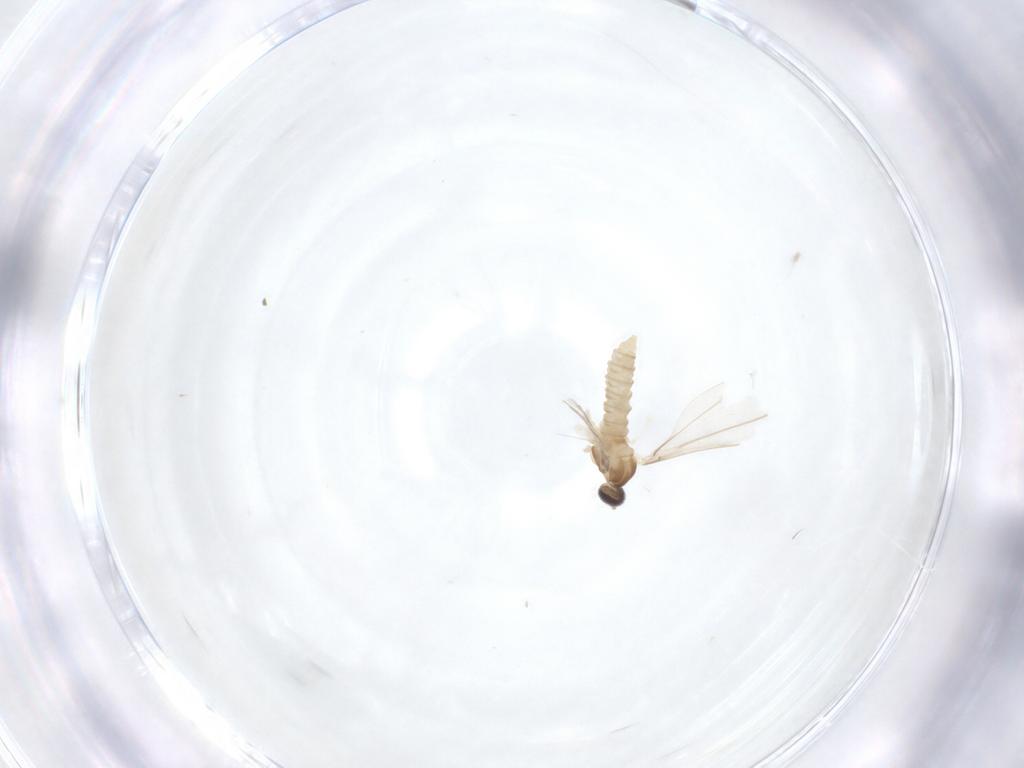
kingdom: Animalia
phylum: Arthropoda
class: Insecta
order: Diptera
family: Cecidomyiidae
